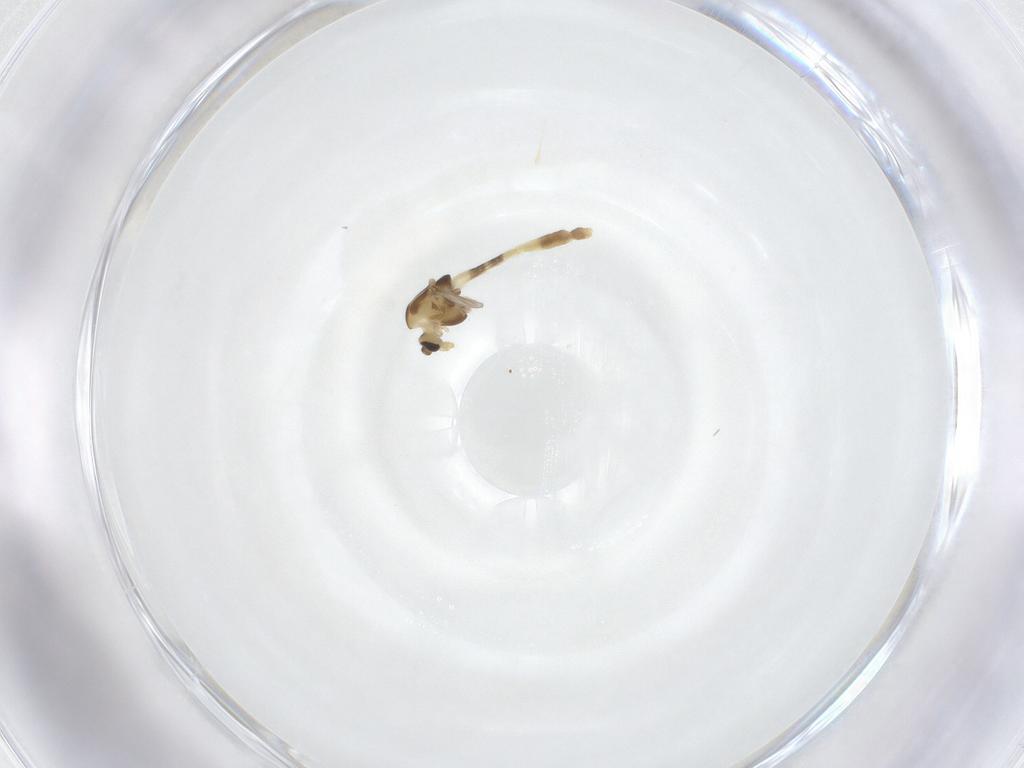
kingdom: Animalia
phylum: Arthropoda
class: Insecta
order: Diptera
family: Chironomidae
